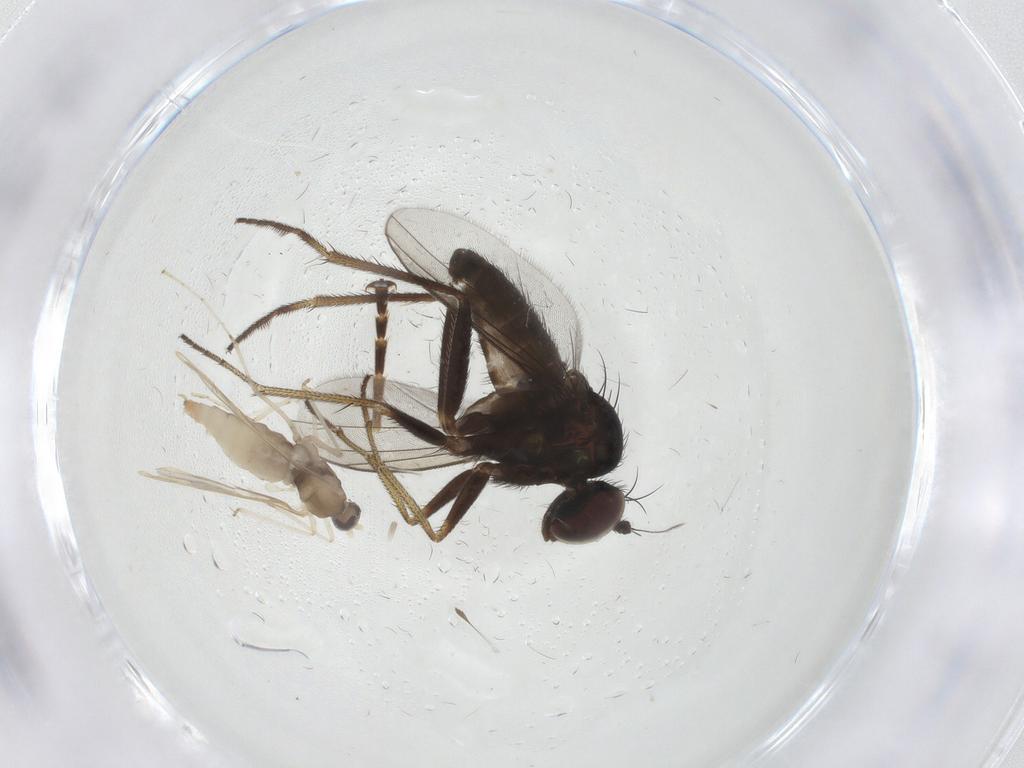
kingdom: Animalia
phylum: Arthropoda
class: Insecta
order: Diptera
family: Cecidomyiidae
